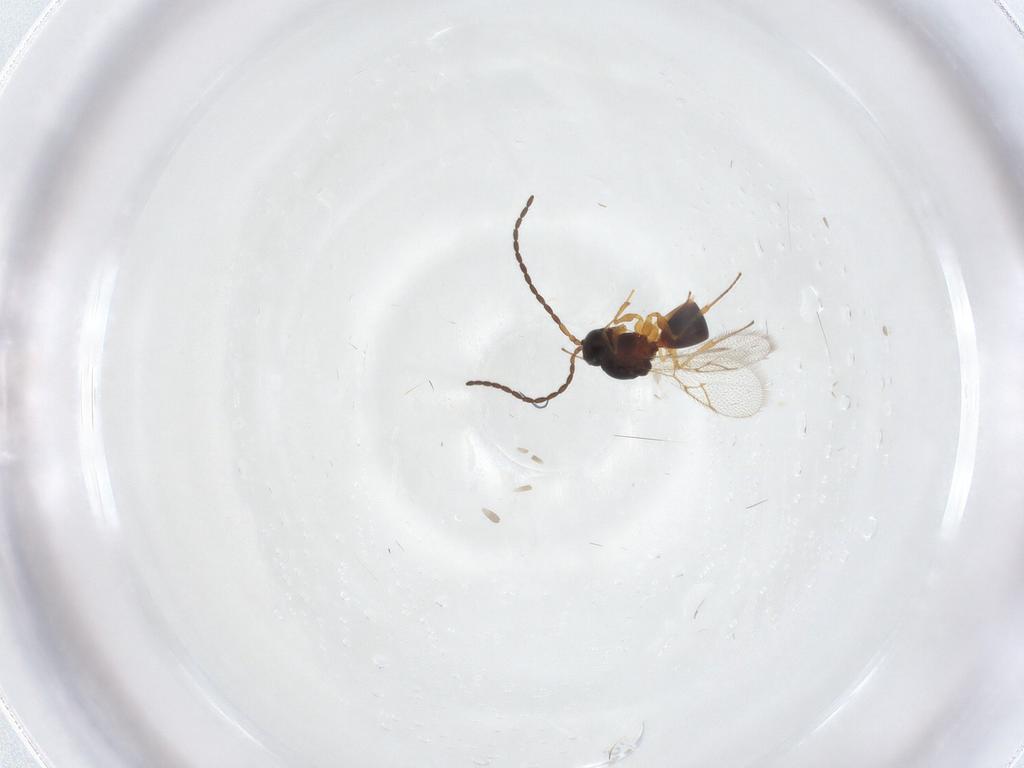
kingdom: Animalia
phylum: Arthropoda
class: Insecta
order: Hymenoptera
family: Figitidae
